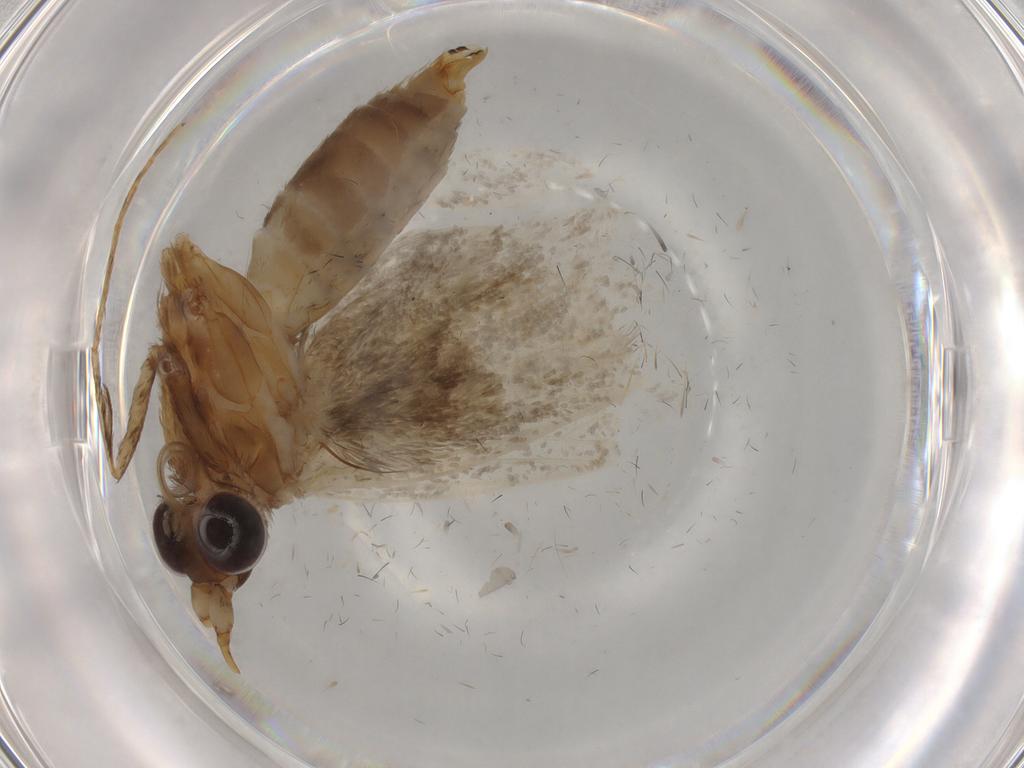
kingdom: Animalia
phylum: Arthropoda
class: Insecta
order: Lepidoptera
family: Adelidae
